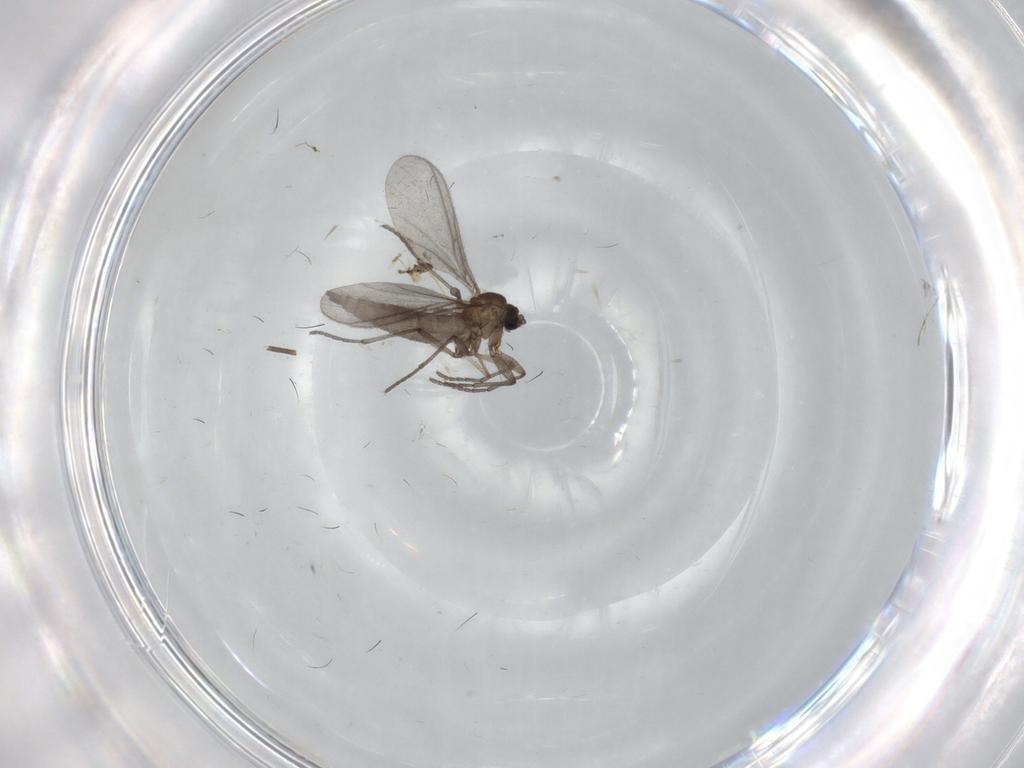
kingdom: Animalia
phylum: Arthropoda
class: Insecta
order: Diptera
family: Sciaridae
